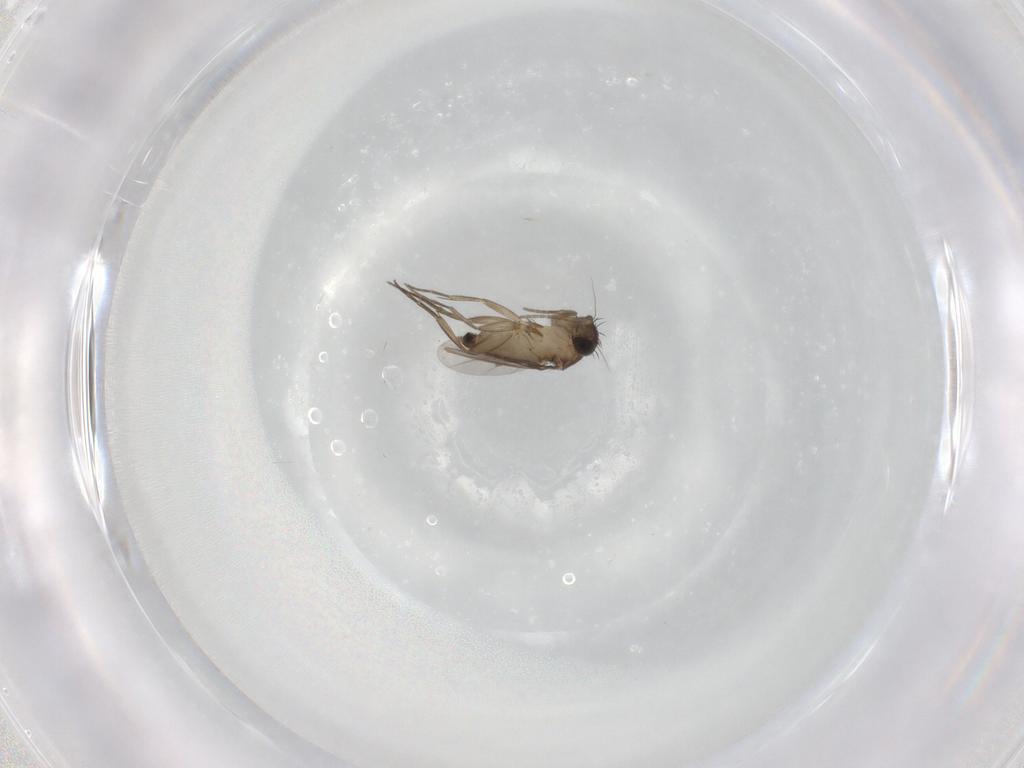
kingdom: Animalia
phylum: Arthropoda
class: Insecta
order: Diptera
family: Phoridae
